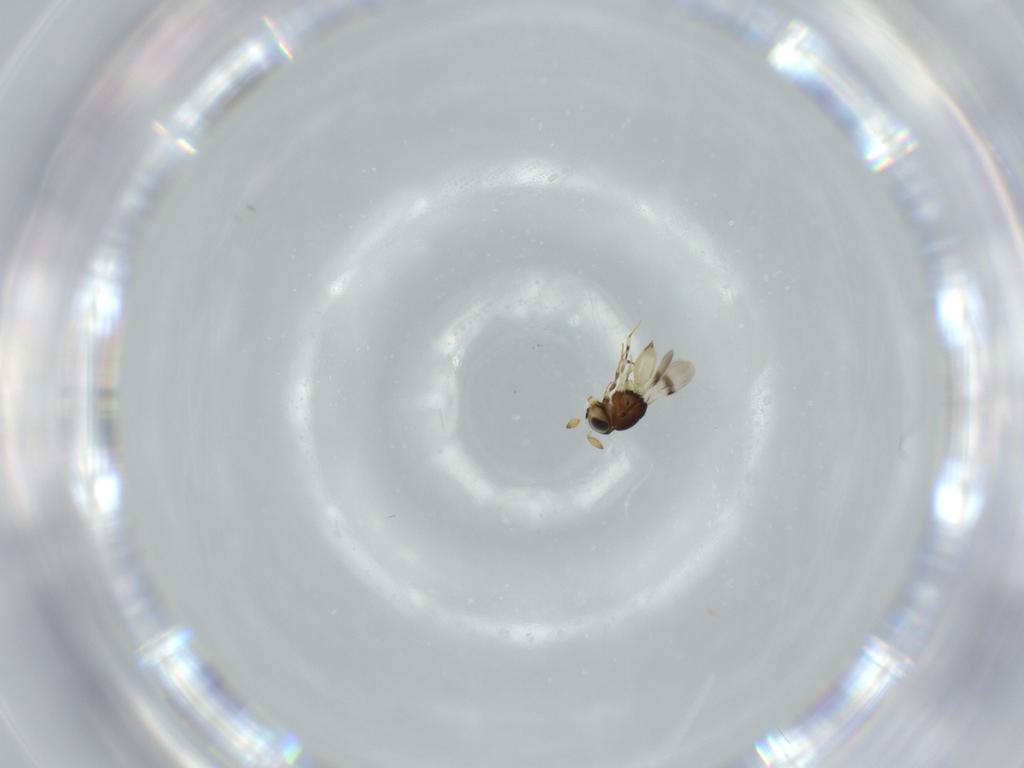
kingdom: Animalia
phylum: Arthropoda
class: Insecta
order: Hymenoptera
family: Scelionidae
